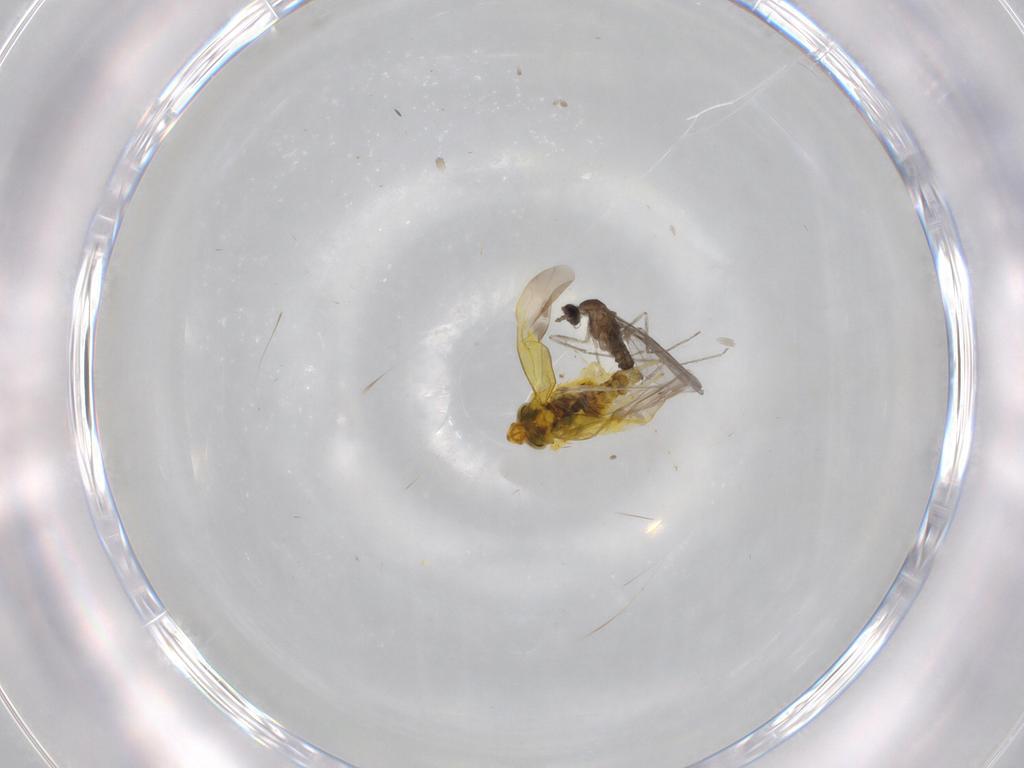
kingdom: Animalia
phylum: Arthropoda
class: Insecta
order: Diptera
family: Cecidomyiidae
